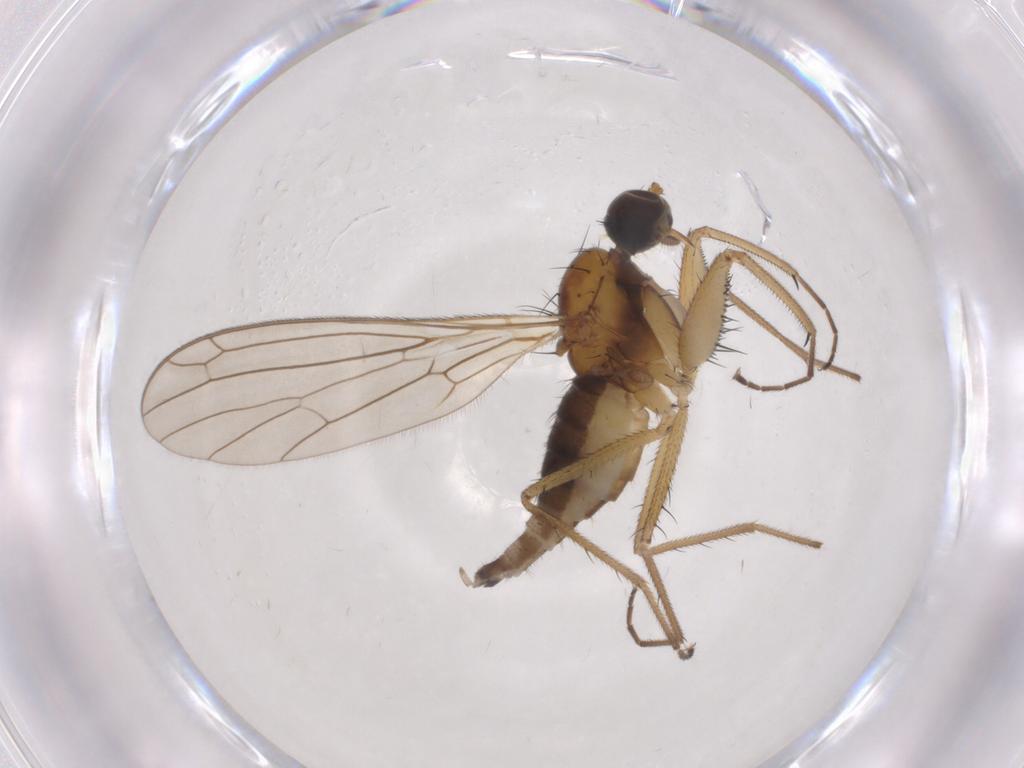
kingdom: Animalia
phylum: Arthropoda
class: Insecta
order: Diptera
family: Empididae
